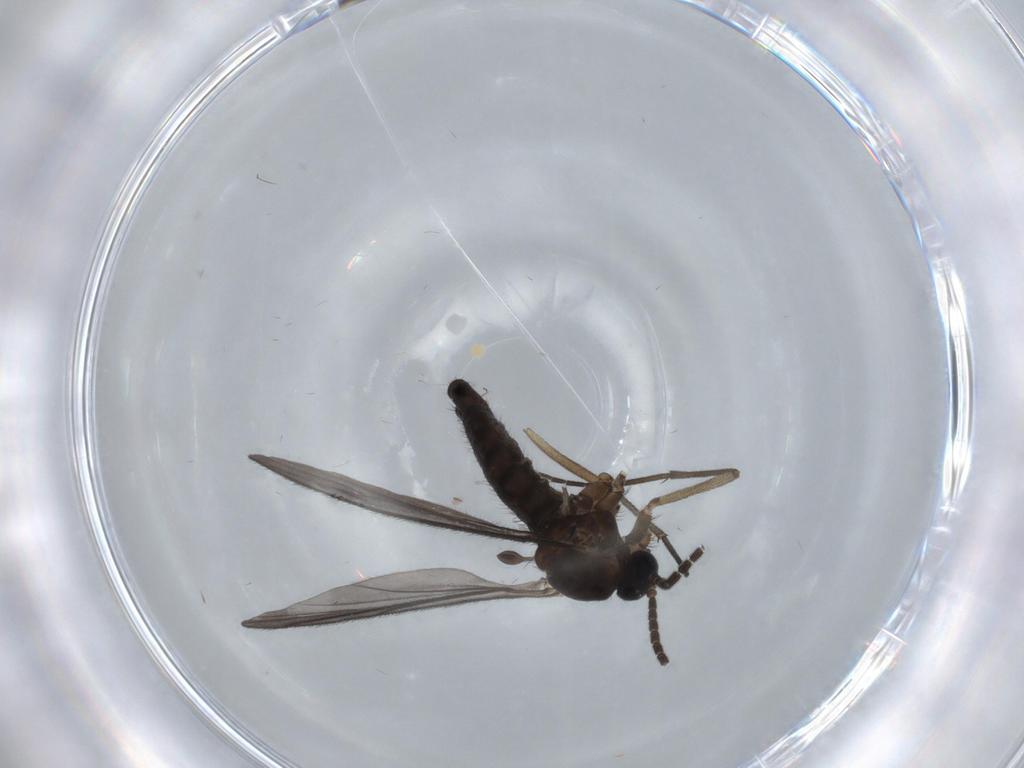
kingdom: Animalia
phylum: Arthropoda
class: Insecta
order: Diptera
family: Sciaridae
